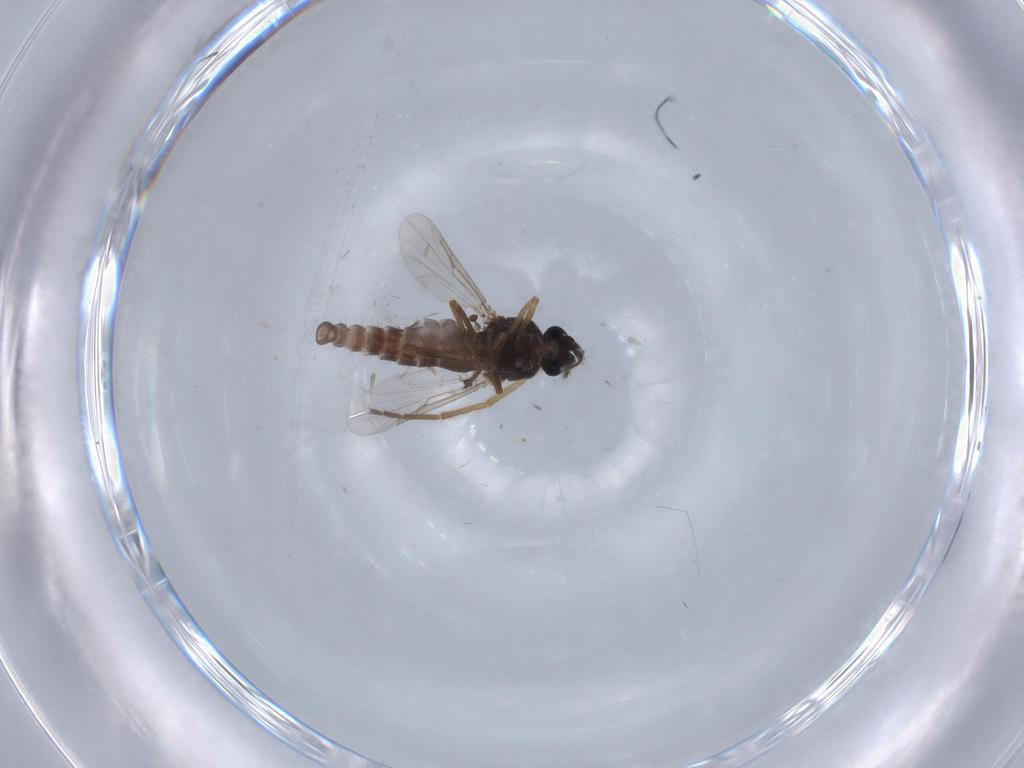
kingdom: Animalia
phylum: Arthropoda
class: Insecta
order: Diptera
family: Ceratopogonidae
